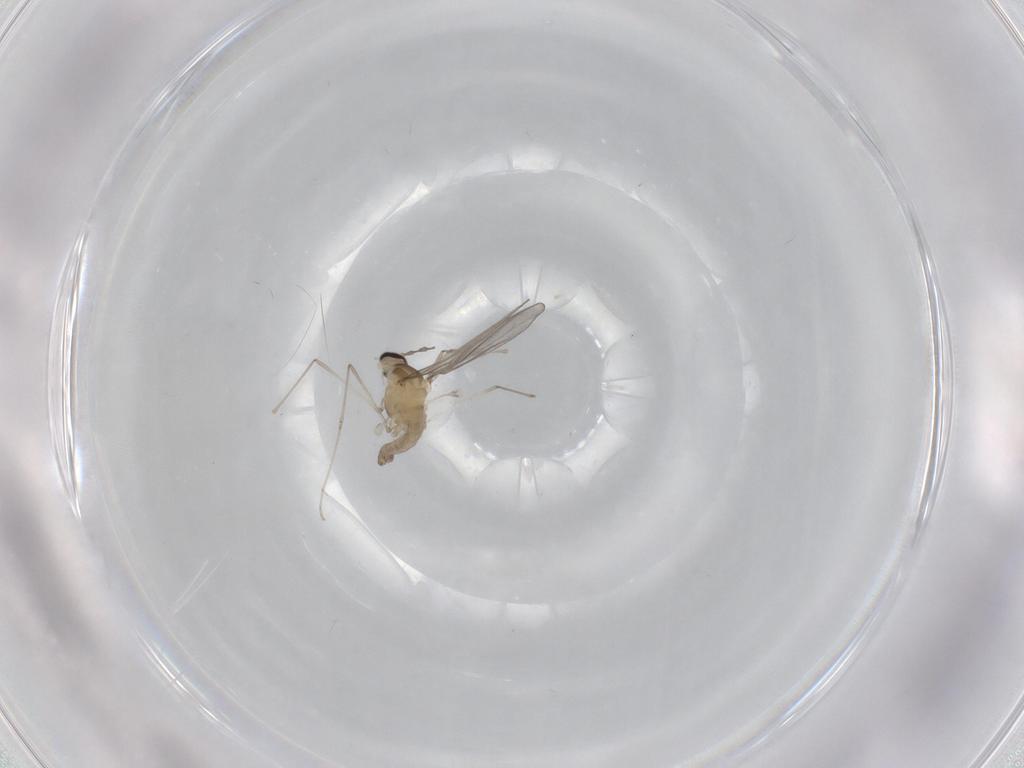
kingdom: Animalia
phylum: Arthropoda
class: Insecta
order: Diptera
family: Cecidomyiidae
